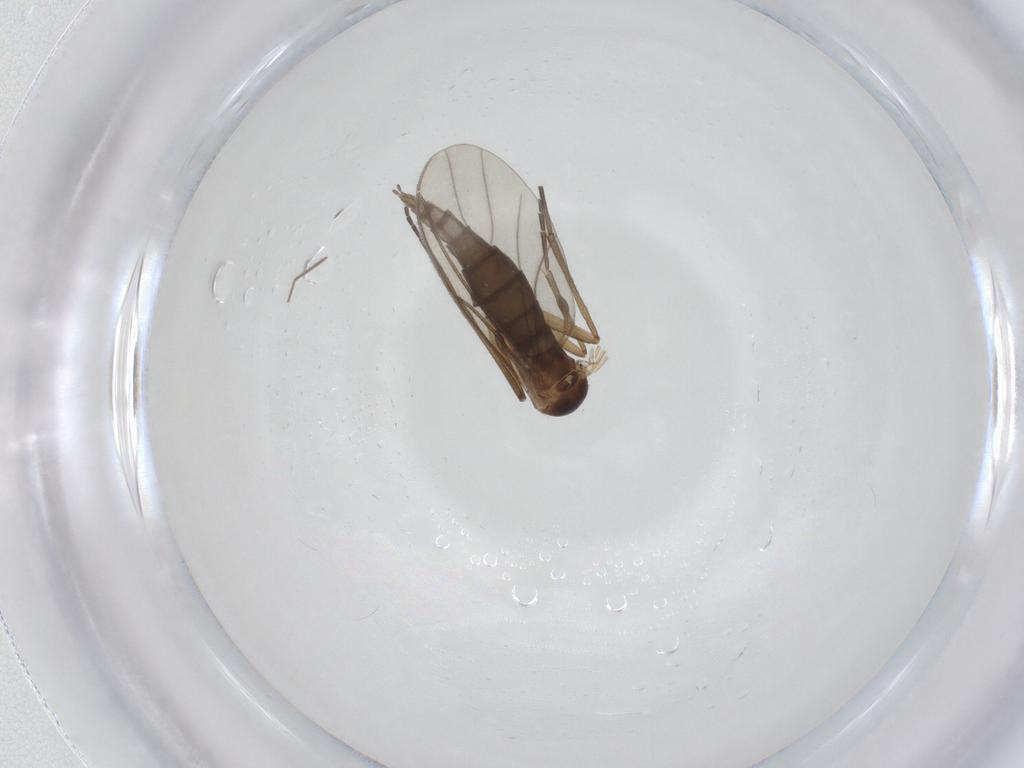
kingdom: Animalia
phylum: Arthropoda
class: Insecta
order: Diptera
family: Sciaridae
